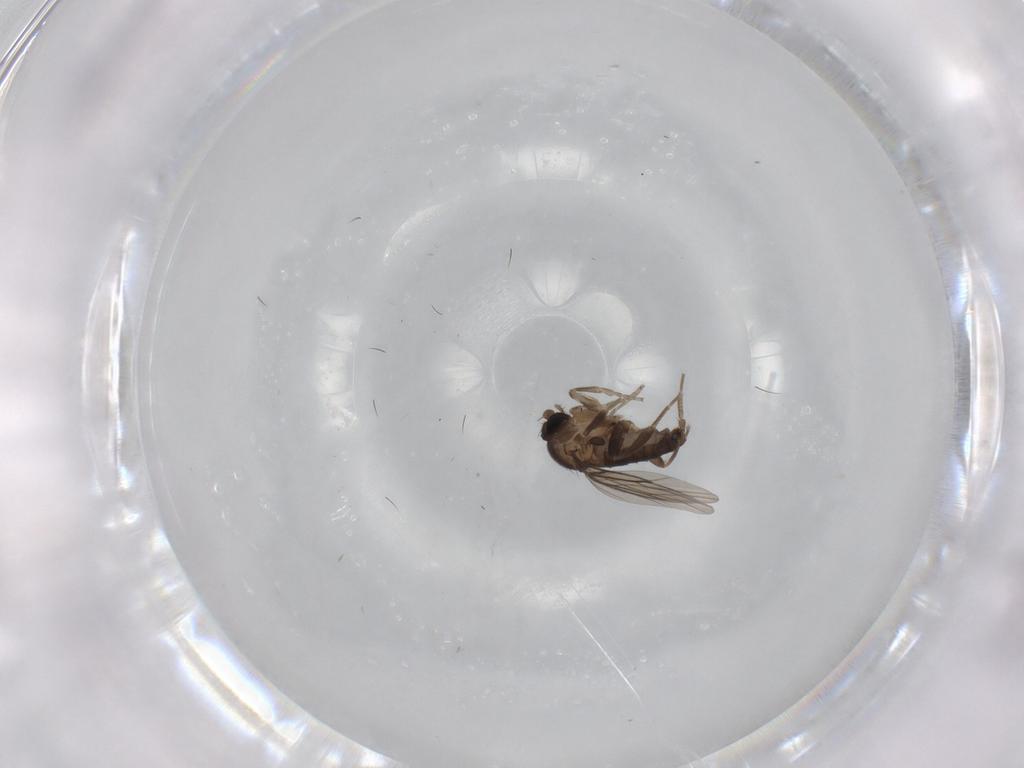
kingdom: Animalia
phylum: Arthropoda
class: Insecta
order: Diptera
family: Phoridae
